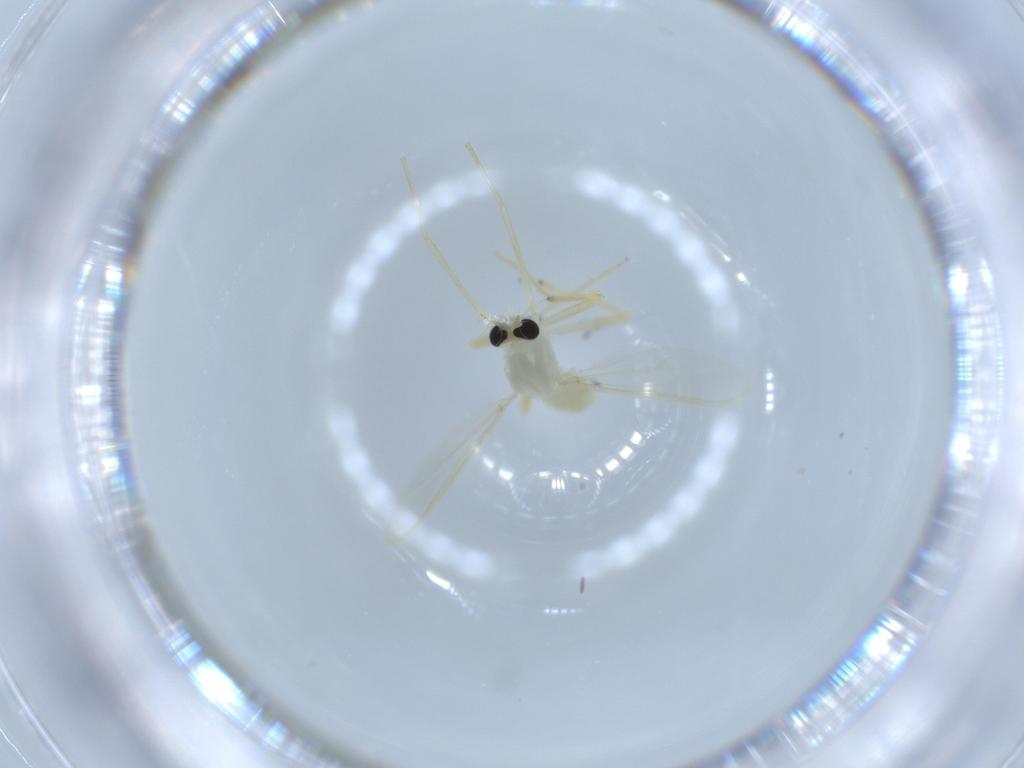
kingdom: Animalia
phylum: Arthropoda
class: Insecta
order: Diptera
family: Chironomidae
